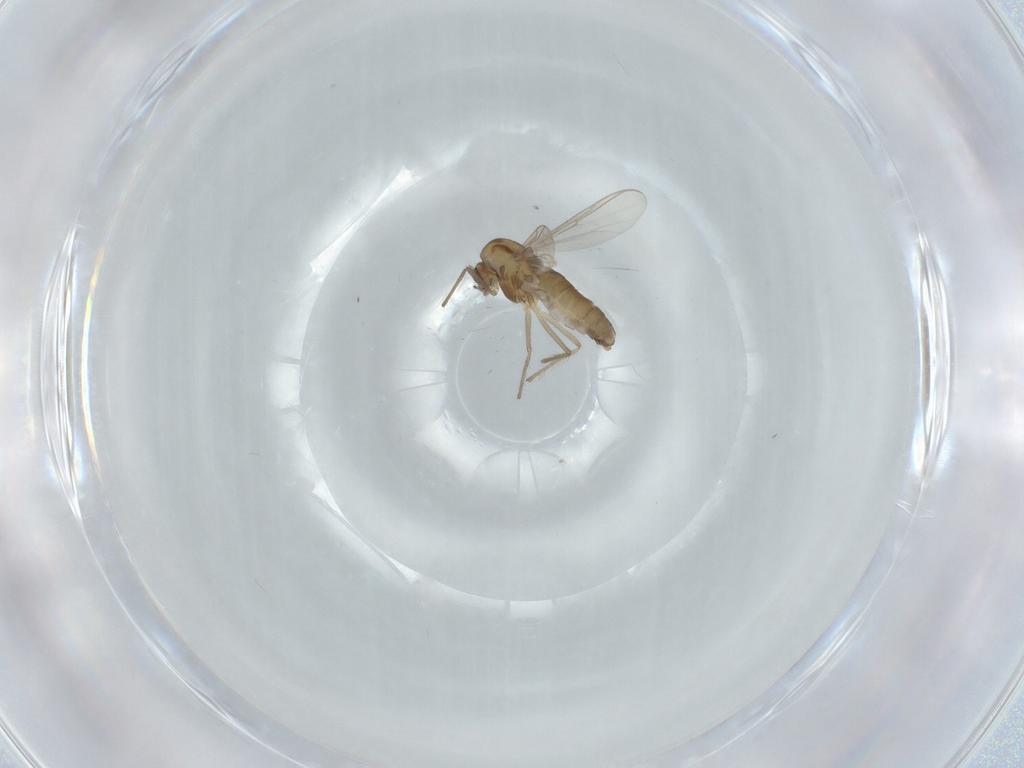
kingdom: Animalia
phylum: Arthropoda
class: Insecta
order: Diptera
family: Chironomidae
